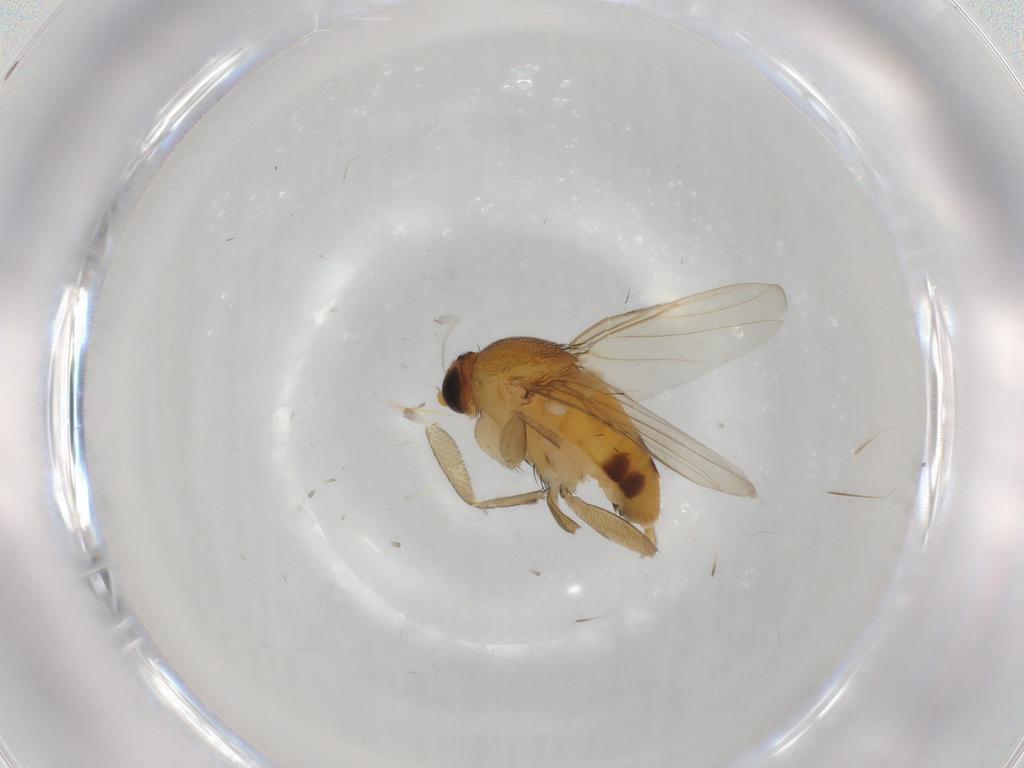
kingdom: Animalia
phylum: Arthropoda
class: Insecta
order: Diptera
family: Phoridae
